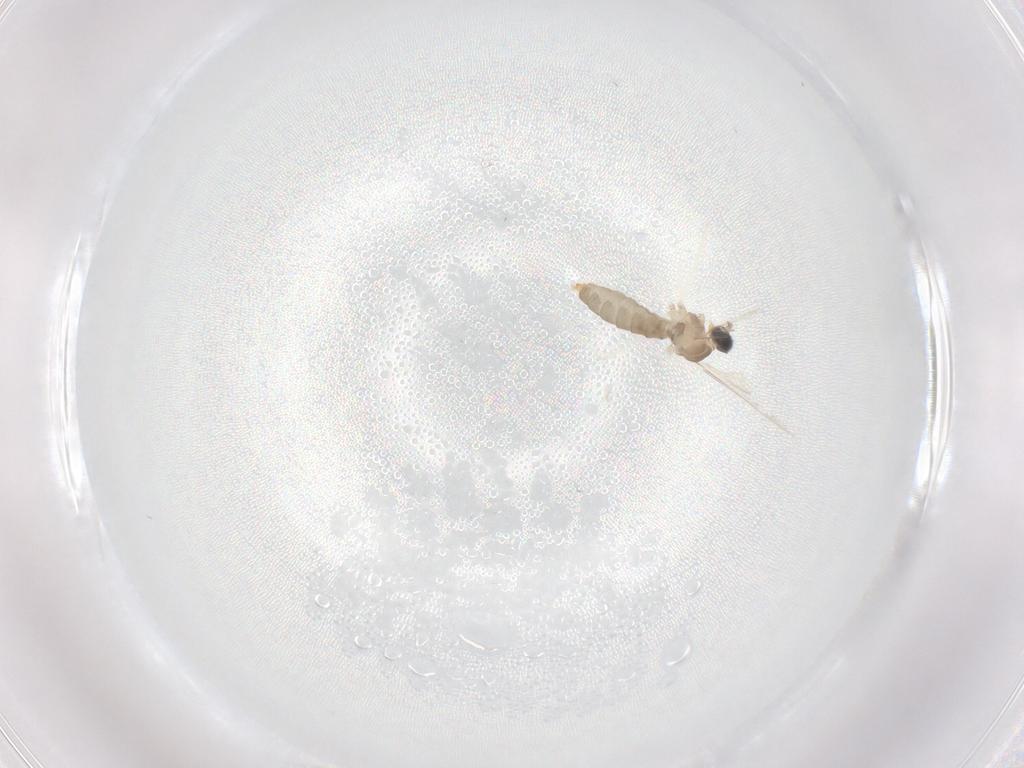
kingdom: Animalia
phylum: Arthropoda
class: Insecta
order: Diptera
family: Cecidomyiidae
